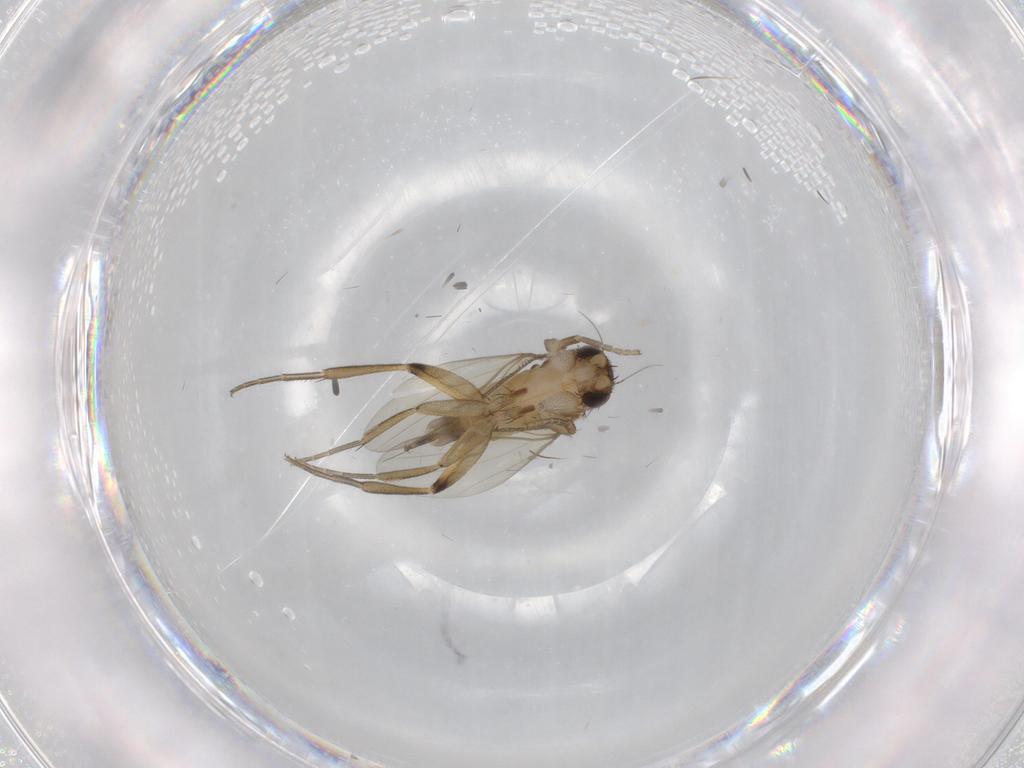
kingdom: Animalia
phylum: Arthropoda
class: Insecta
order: Diptera
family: Phoridae
